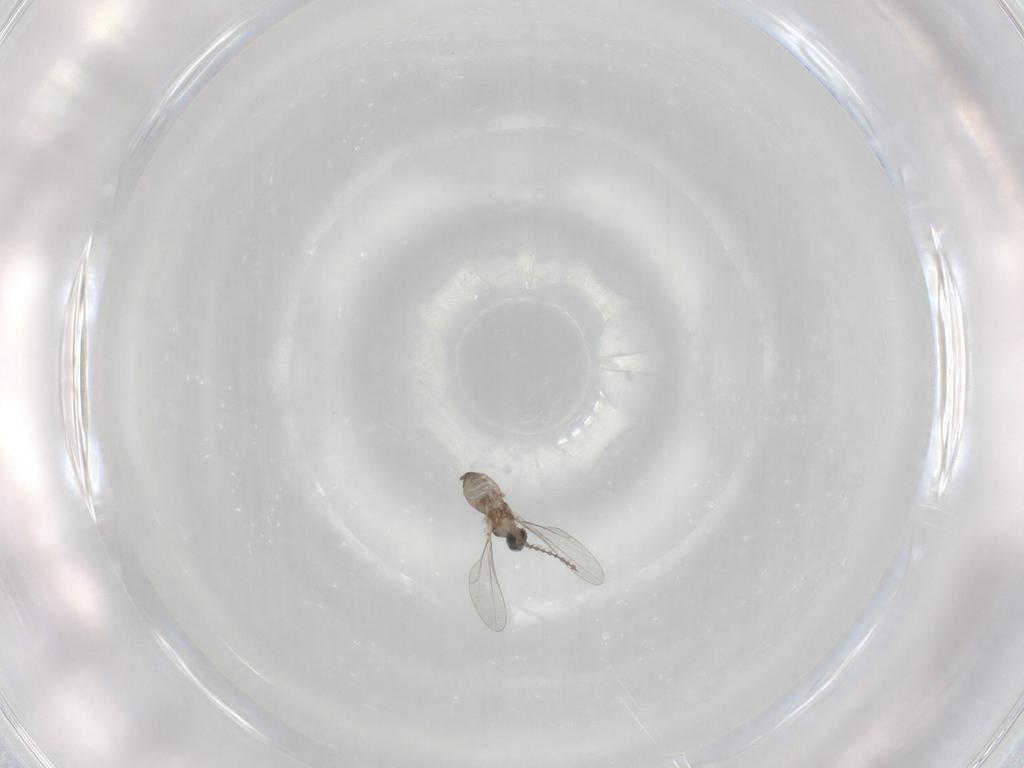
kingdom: Animalia
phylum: Arthropoda
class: Insecta
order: Diptera
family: Cecidomyiidae
